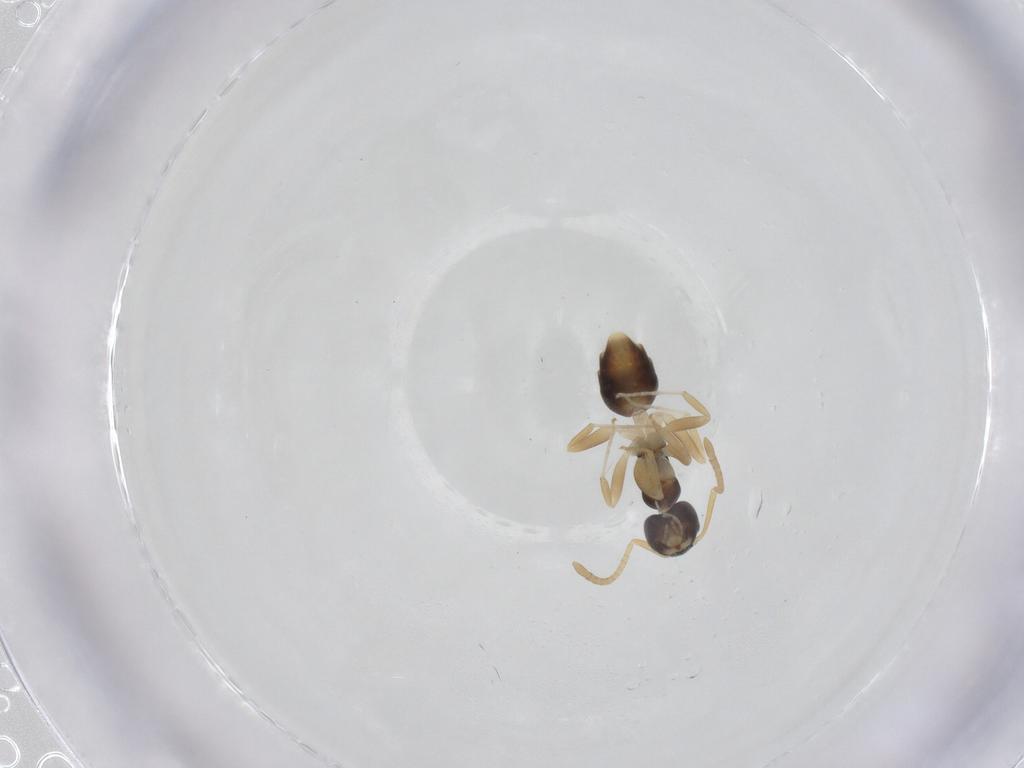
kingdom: Animalia
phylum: Arthropoda
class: Insecta
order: Hymenoptera
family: Formicidae
